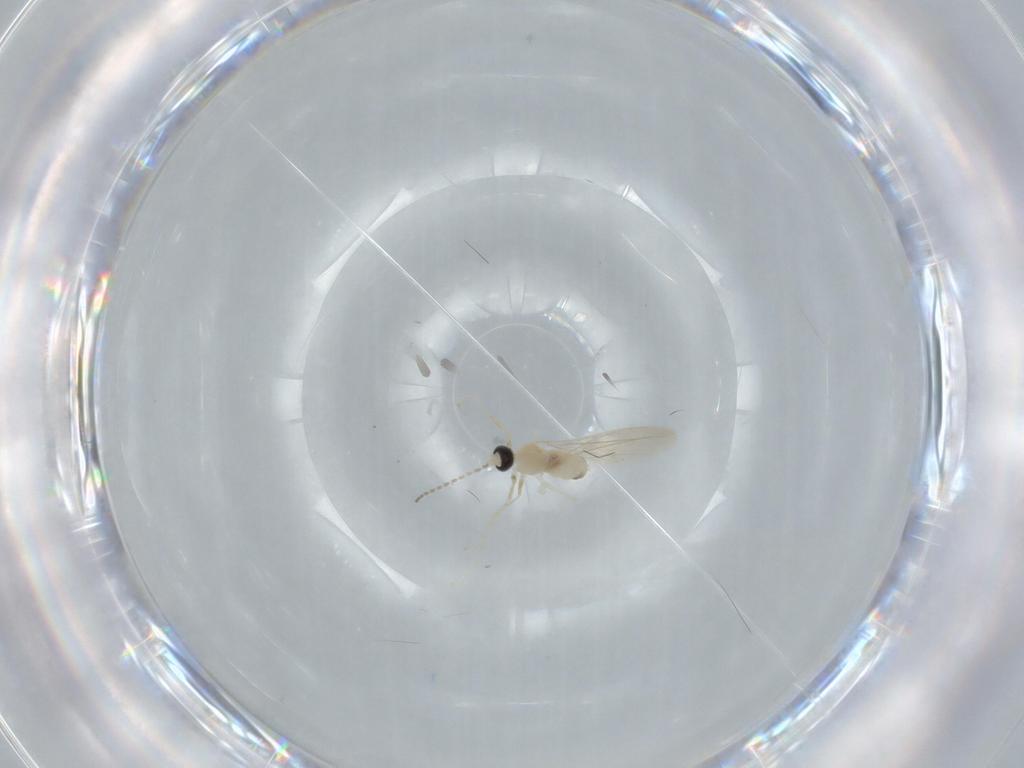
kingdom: Animalia
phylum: Arthropoda
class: Insecta
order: Diptera
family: Cecidomyiidae
